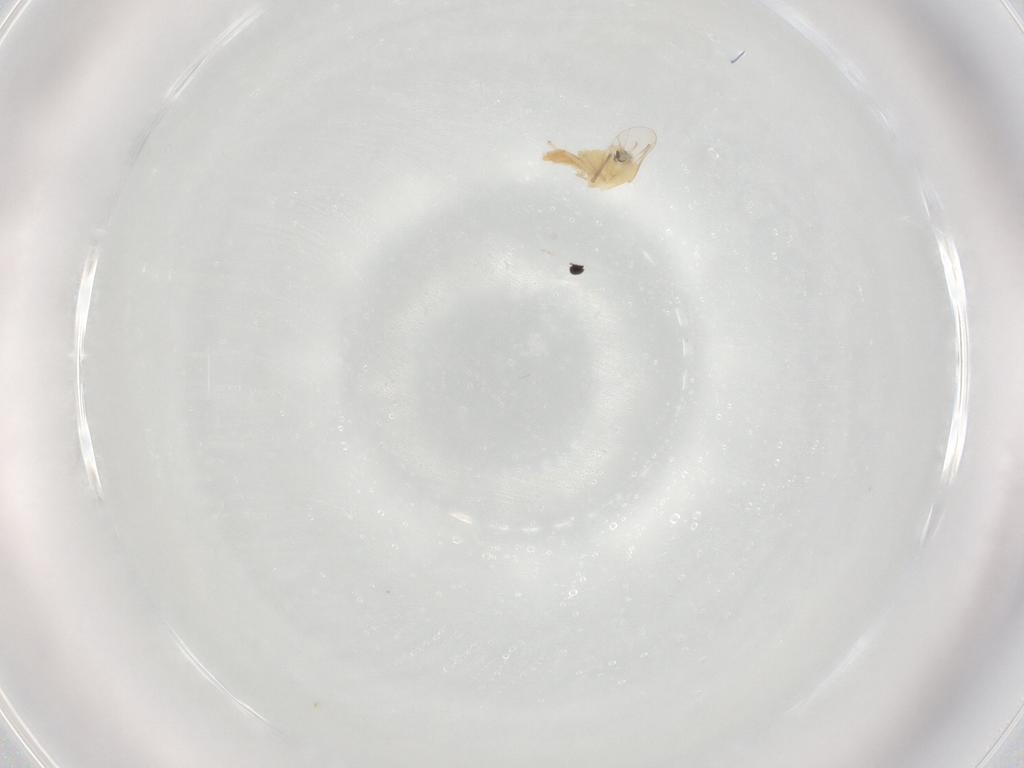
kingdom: Animalia
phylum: Arthropoda
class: Insecta
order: Diptera
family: Chironomidae
